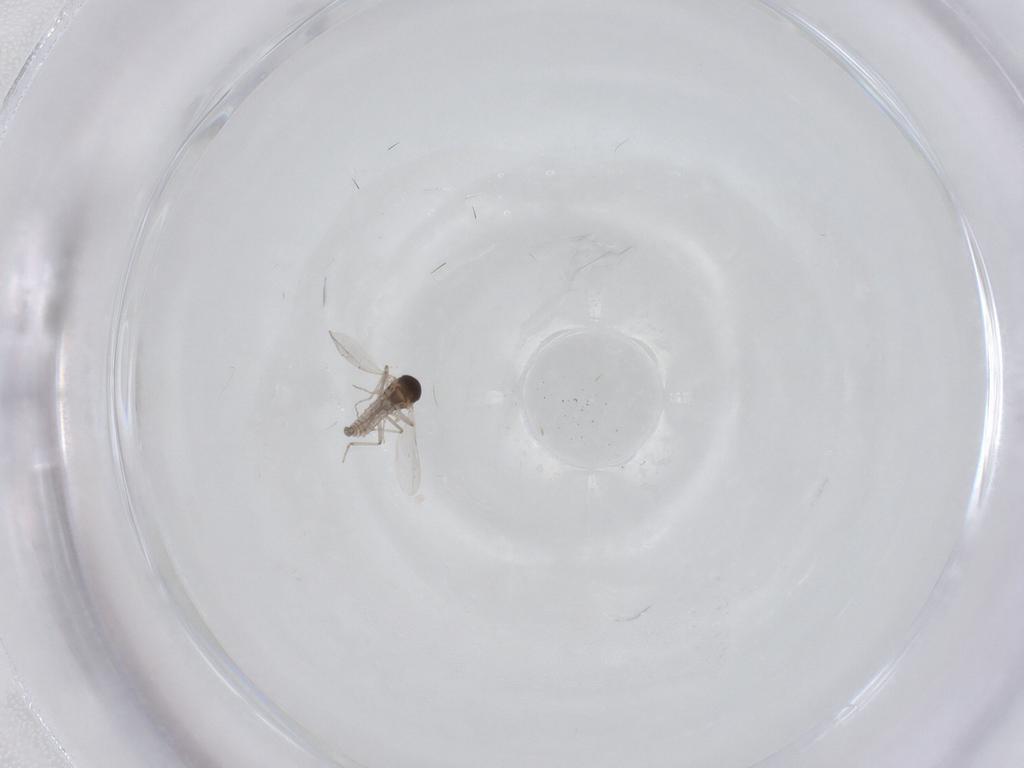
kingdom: Animalia
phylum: Arthropoda
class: Insecta
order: Diptera
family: Ceratopogonidae
